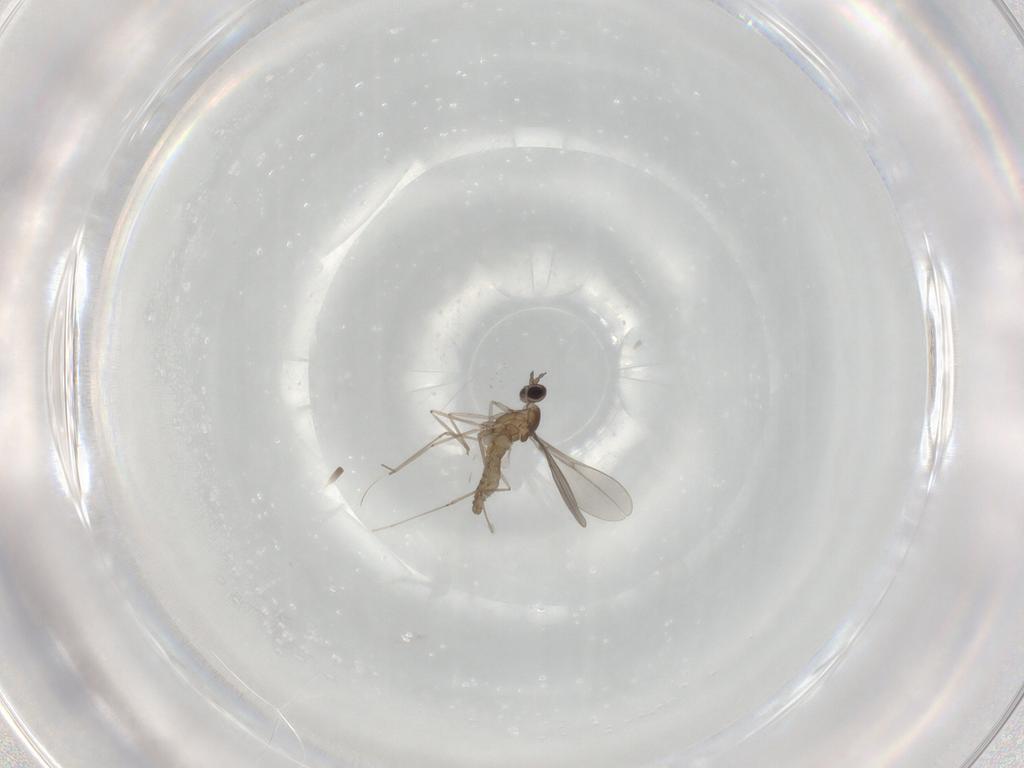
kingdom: Animalia
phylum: Arthropoda
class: Insecta
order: Diptera
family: Cecidomyiidae
